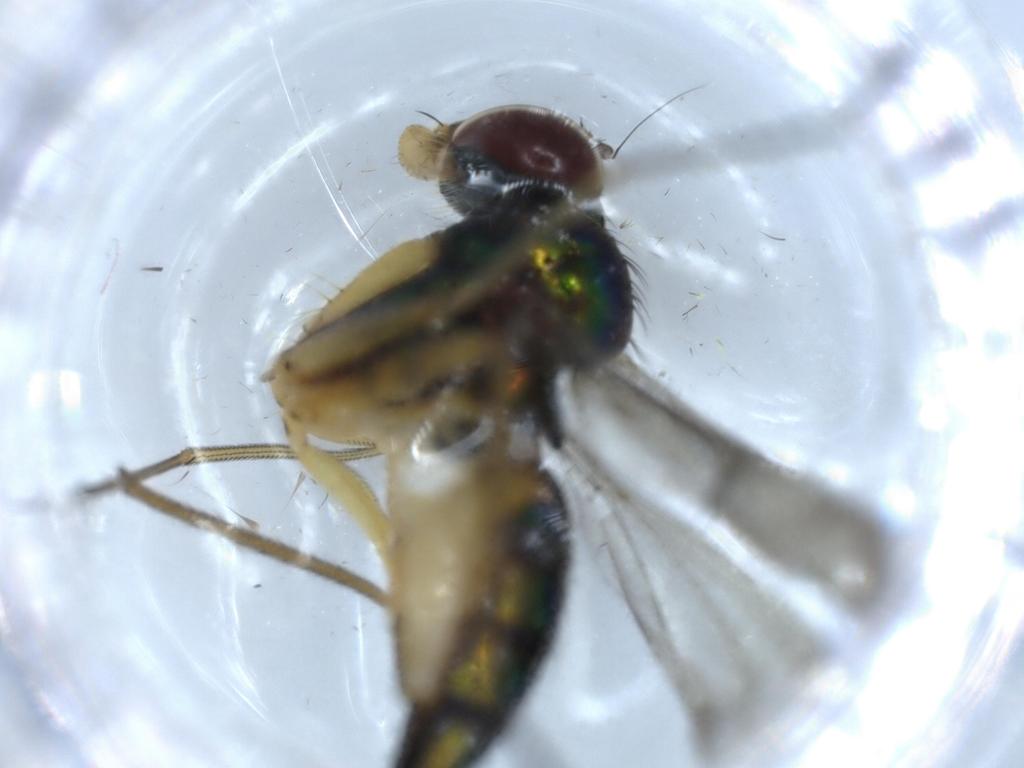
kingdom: Animalia
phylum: Arthropoda
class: Insecta
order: Diptera
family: Dolichopodidae
